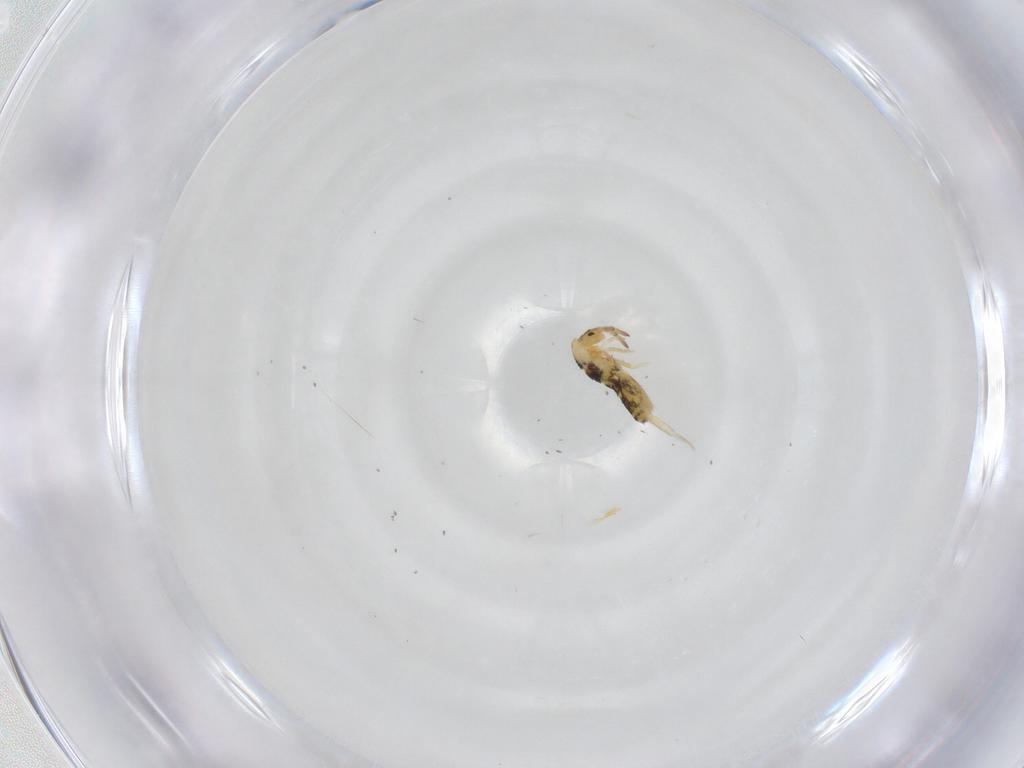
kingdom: Animalia
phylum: Arthropoda
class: Collembola
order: Entomobryomorpha
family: Entomobryidae
